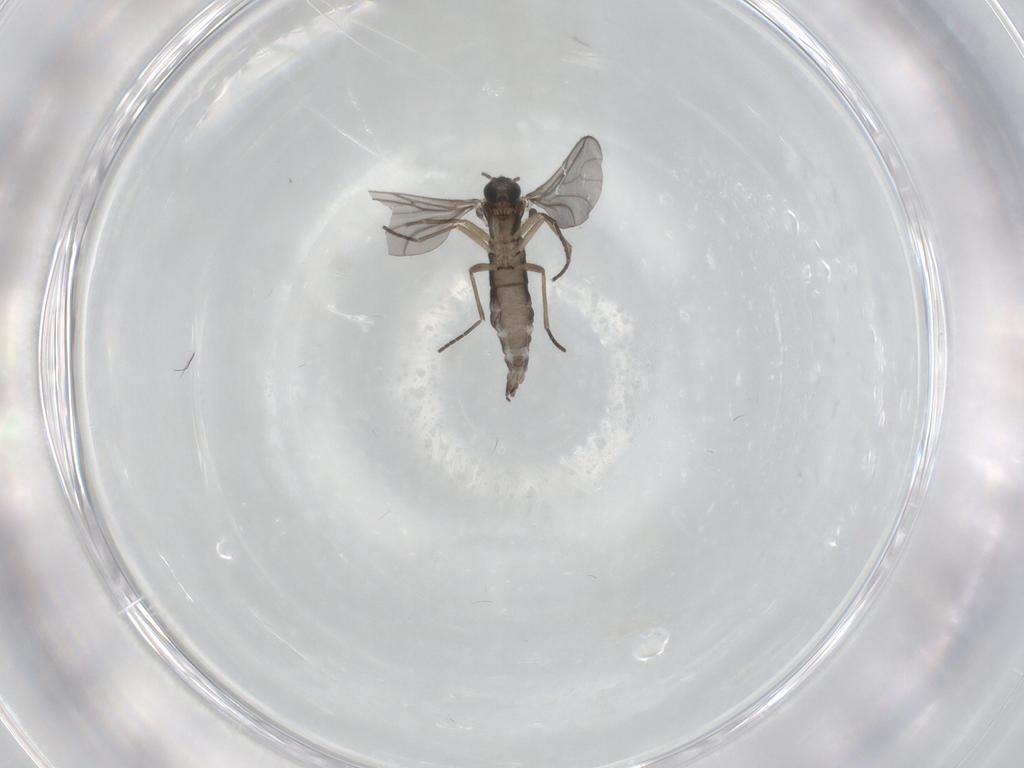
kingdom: Animalia
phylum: Arthropoda
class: Insecta
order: Diptera
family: Sciaridae
